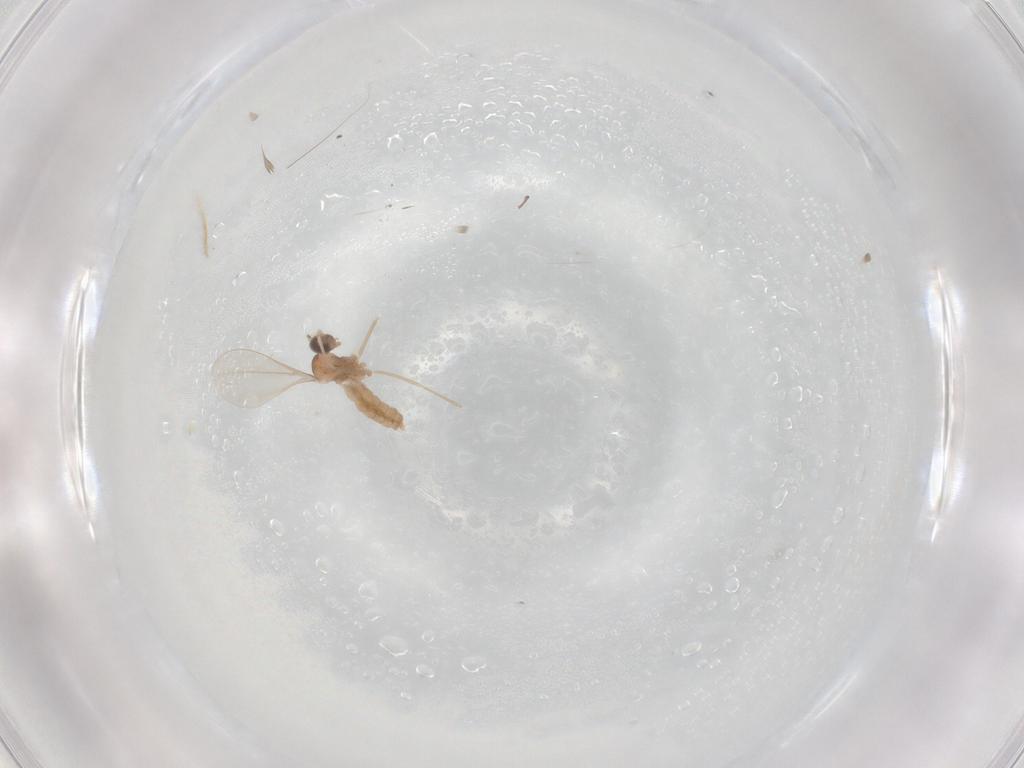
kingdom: Animalia
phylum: Arthropoda
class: Insecta
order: Diptera
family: Cecidomyiidae
